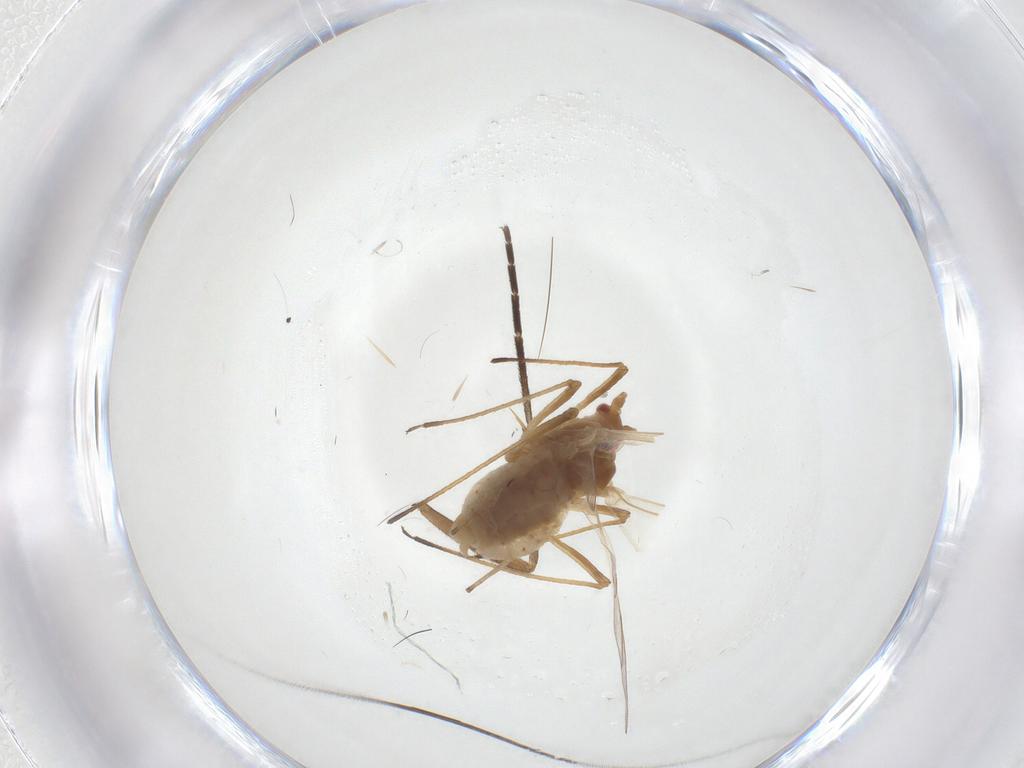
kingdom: Animalia
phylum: Arthropoda
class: Insecta
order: Hemiptera
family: Aphididae
